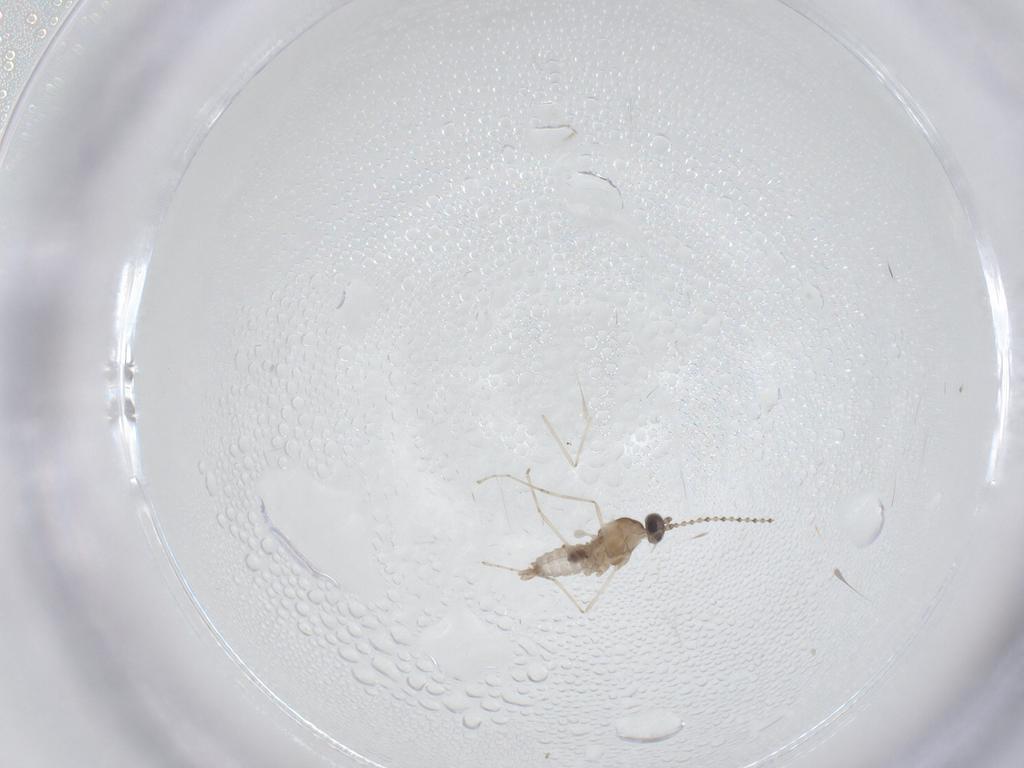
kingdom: Animalia
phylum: Arthropoda
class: Insecta
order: Diptera
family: Cecidomyiidae
